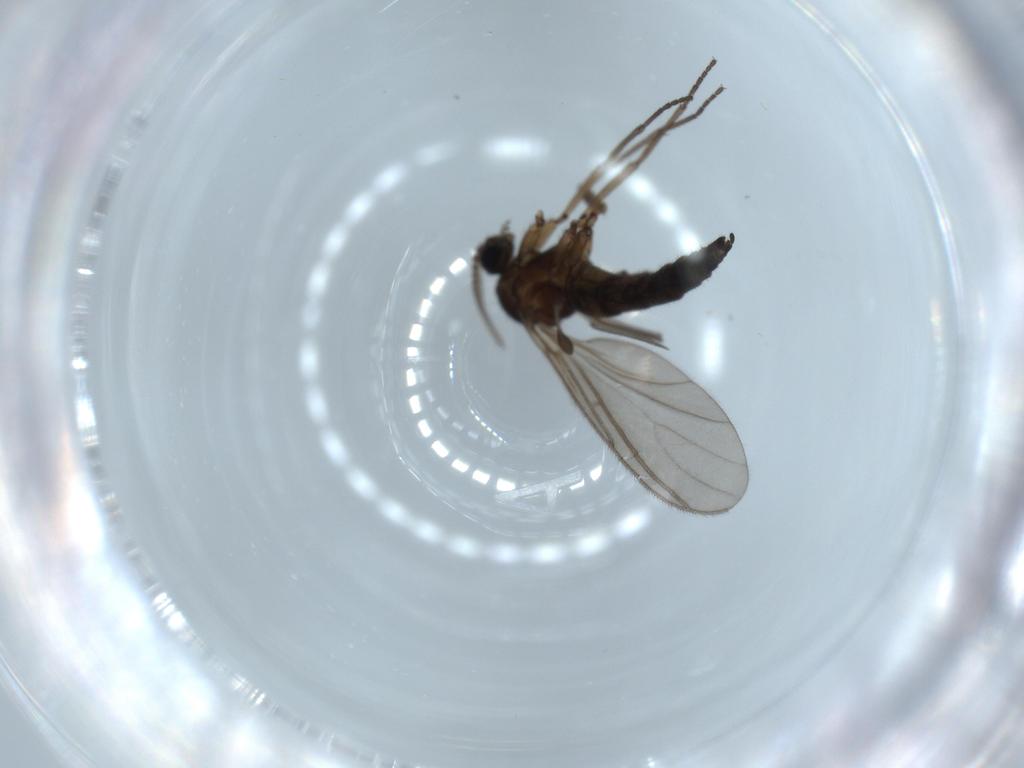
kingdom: Animalia
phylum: Arthropoda
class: Insecta
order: Diptera
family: Sciaridae
